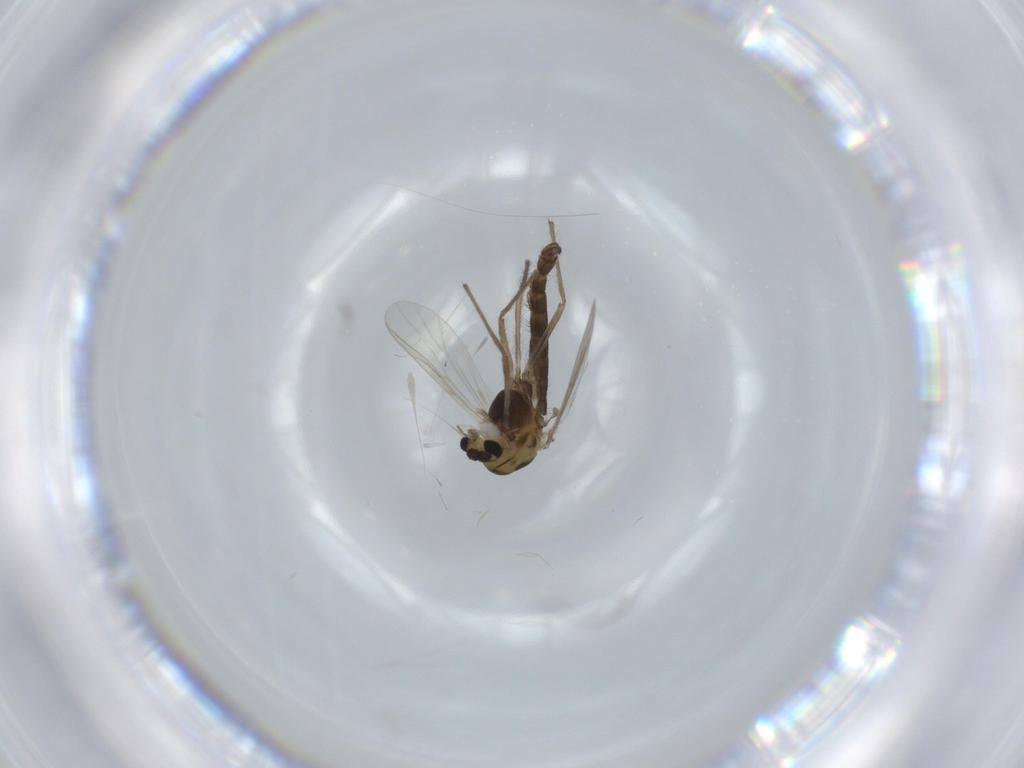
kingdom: Animalia
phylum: Arthropoda
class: Insecta
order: Diptera
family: Chironomidae
